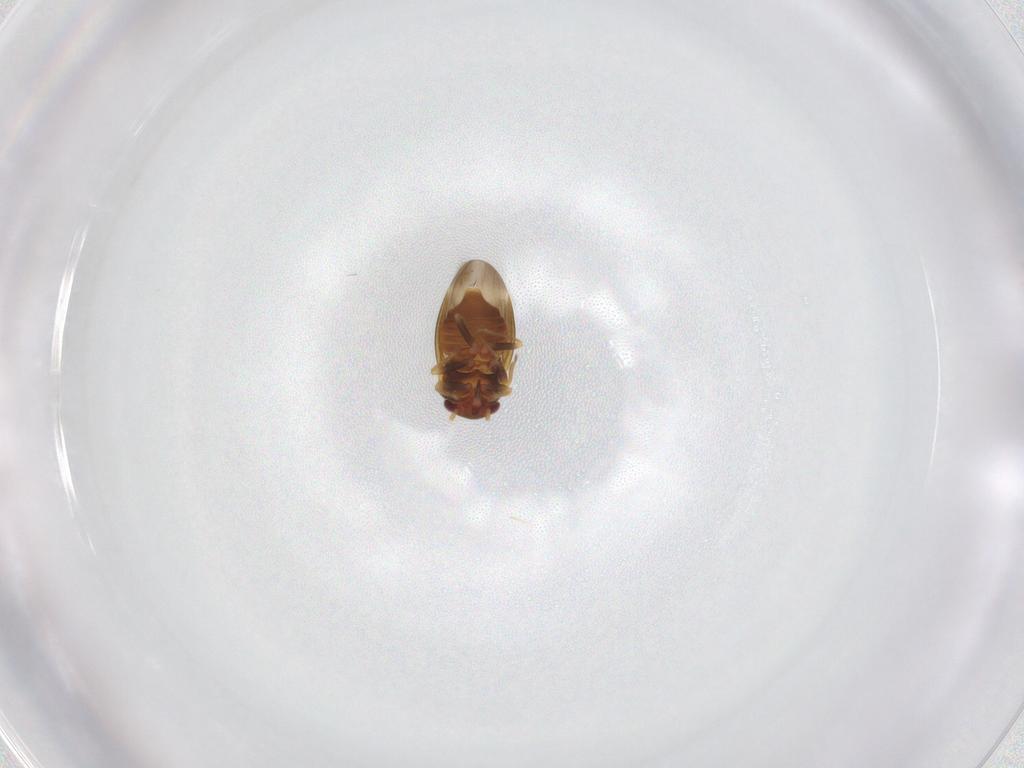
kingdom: Animalia
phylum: Arthropoda
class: Insecta
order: Hemiptera
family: Schizopteridae
